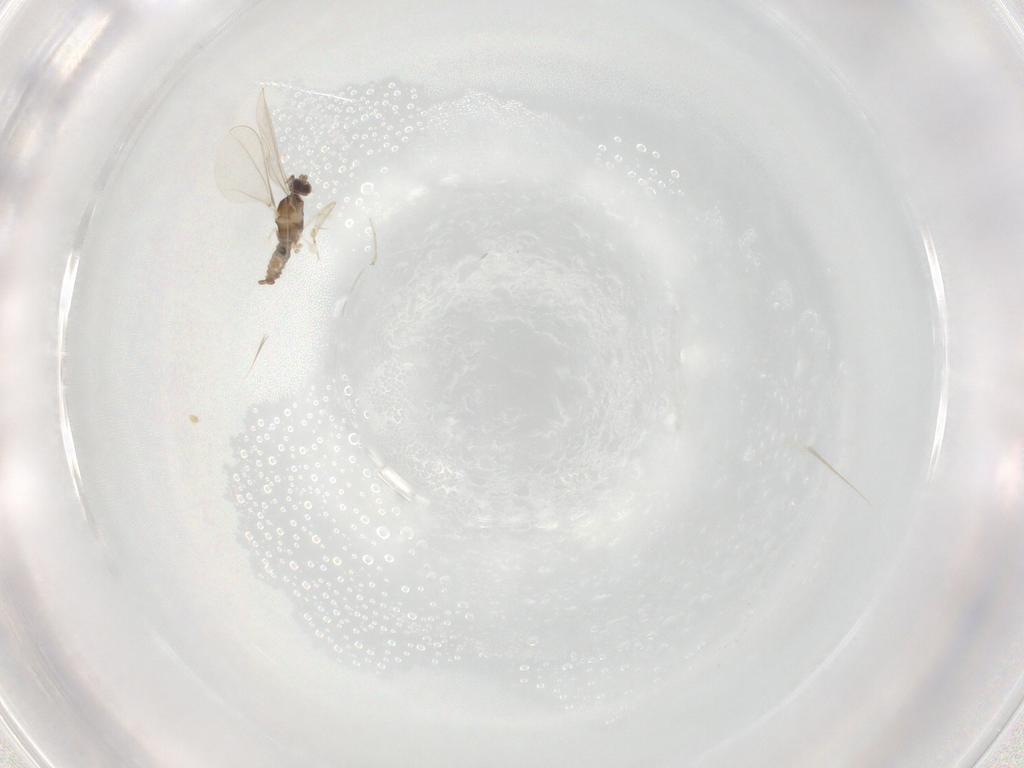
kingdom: Animalia
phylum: Arthropoda
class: Insecta
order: Diptera
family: Cecidomyiidae
